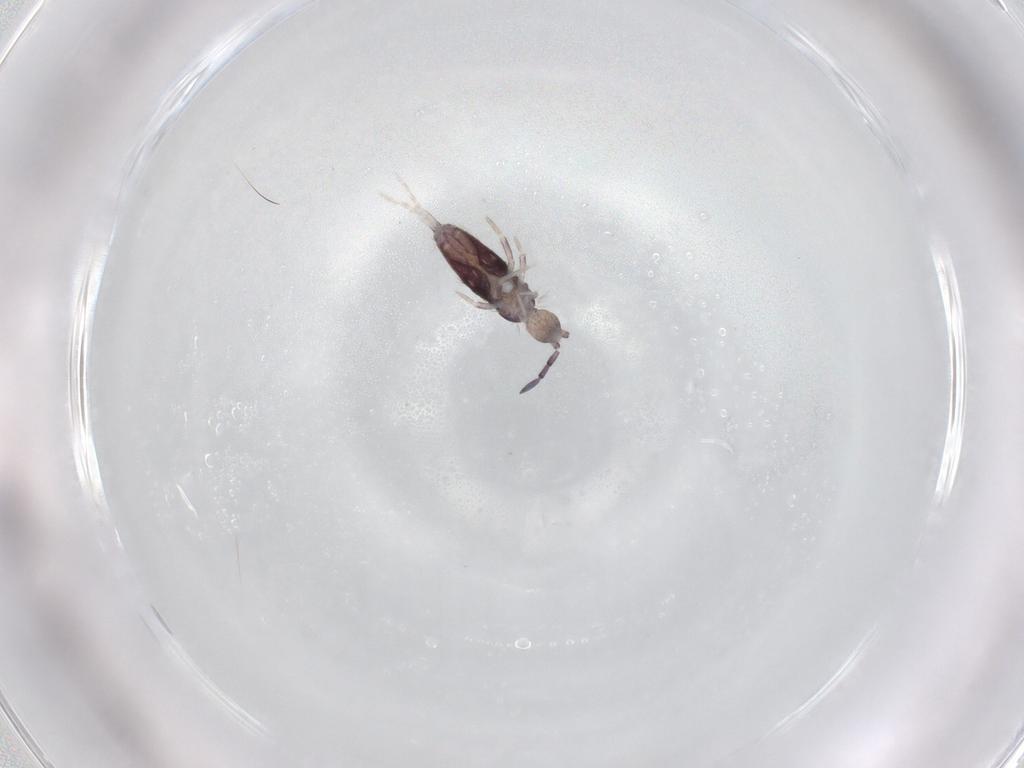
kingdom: Animalia
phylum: Arthropoda
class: Collembola
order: Entomobryomorpha
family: Entomobryidae
